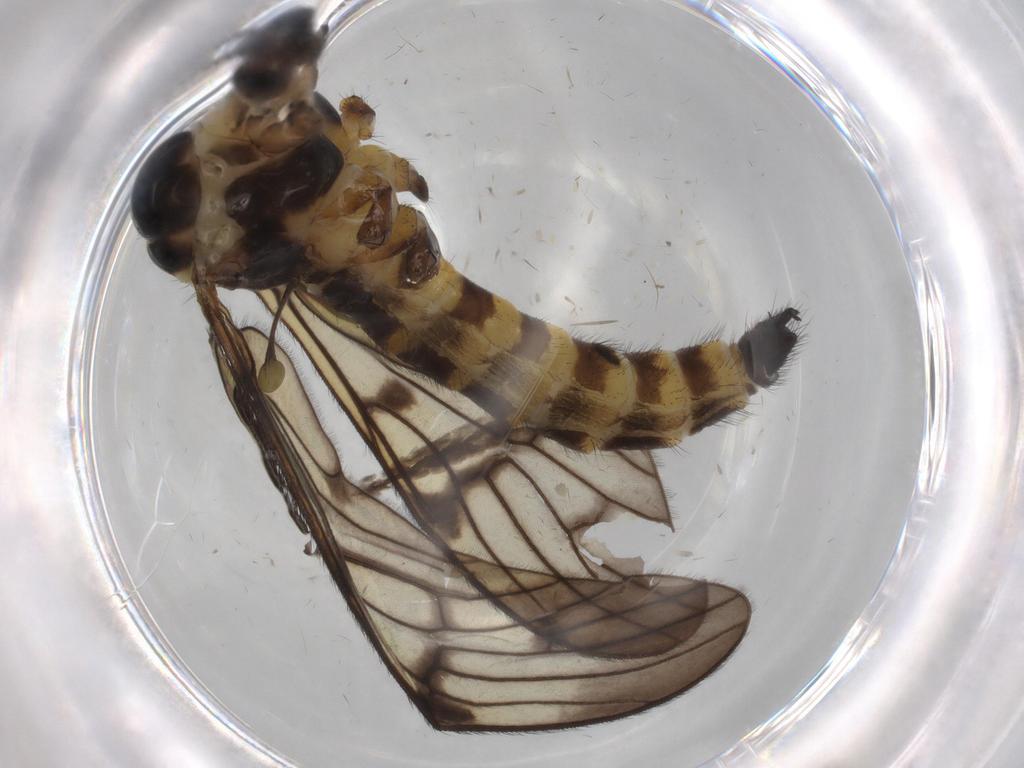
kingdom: Animalia
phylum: Arthropoda
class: Insecta
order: Diptera
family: Limoniidae
